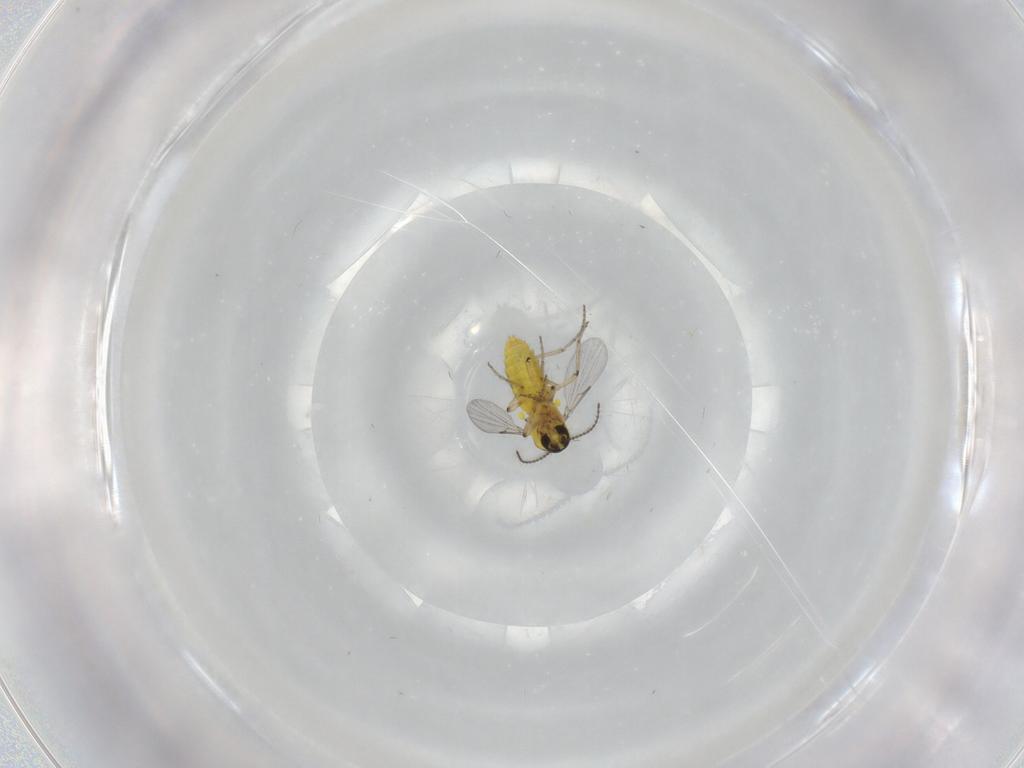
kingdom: Animalia
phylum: Arthropoda
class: Insecta
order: Diptera
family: Ceratopogonidae
